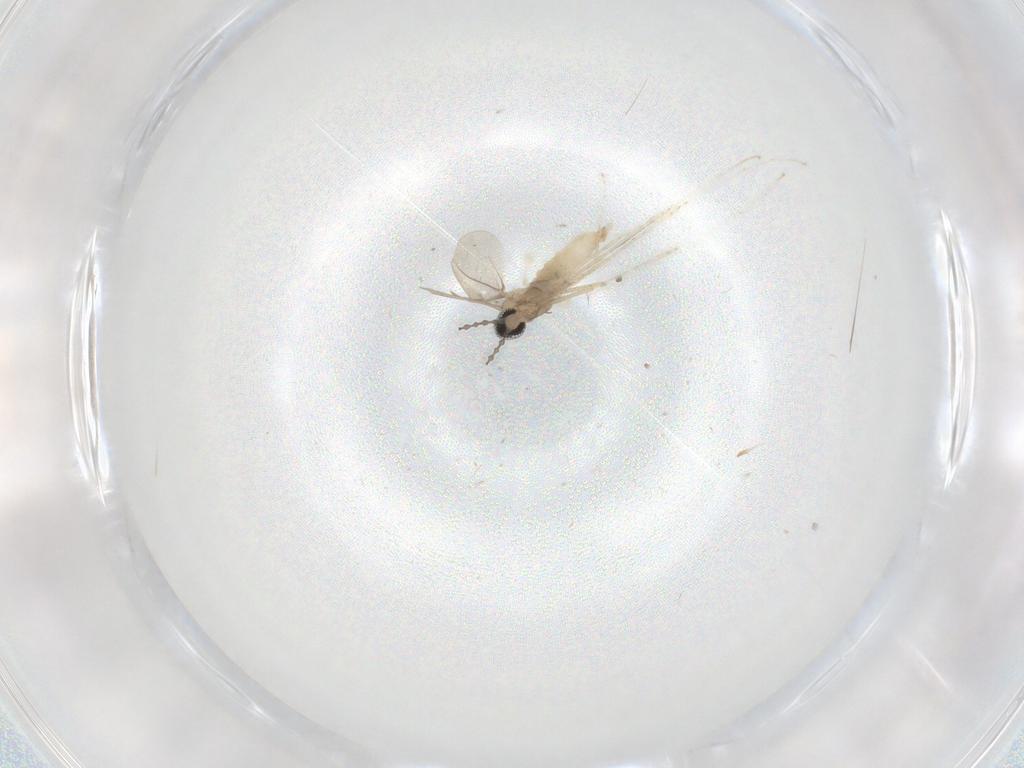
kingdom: Animalia
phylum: Arthropoda
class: Insecta
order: Diptera
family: Cecidomyiidae
